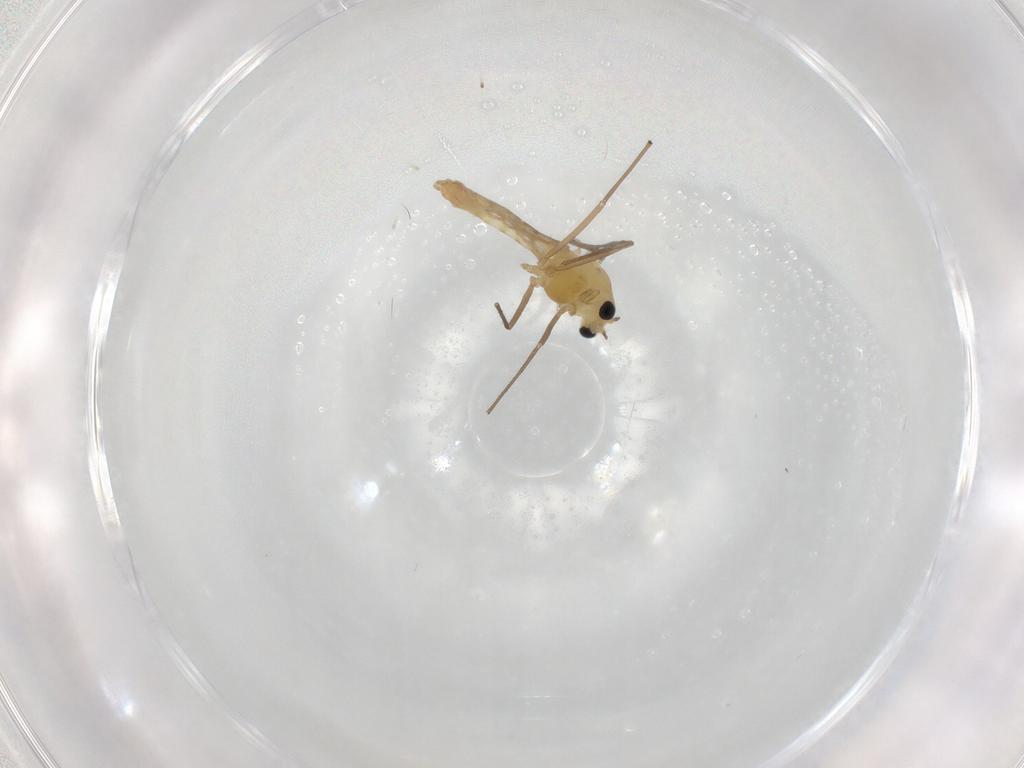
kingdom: Animalia
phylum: Arthropoda
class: Insecta
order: Diptera
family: Chironomidae
